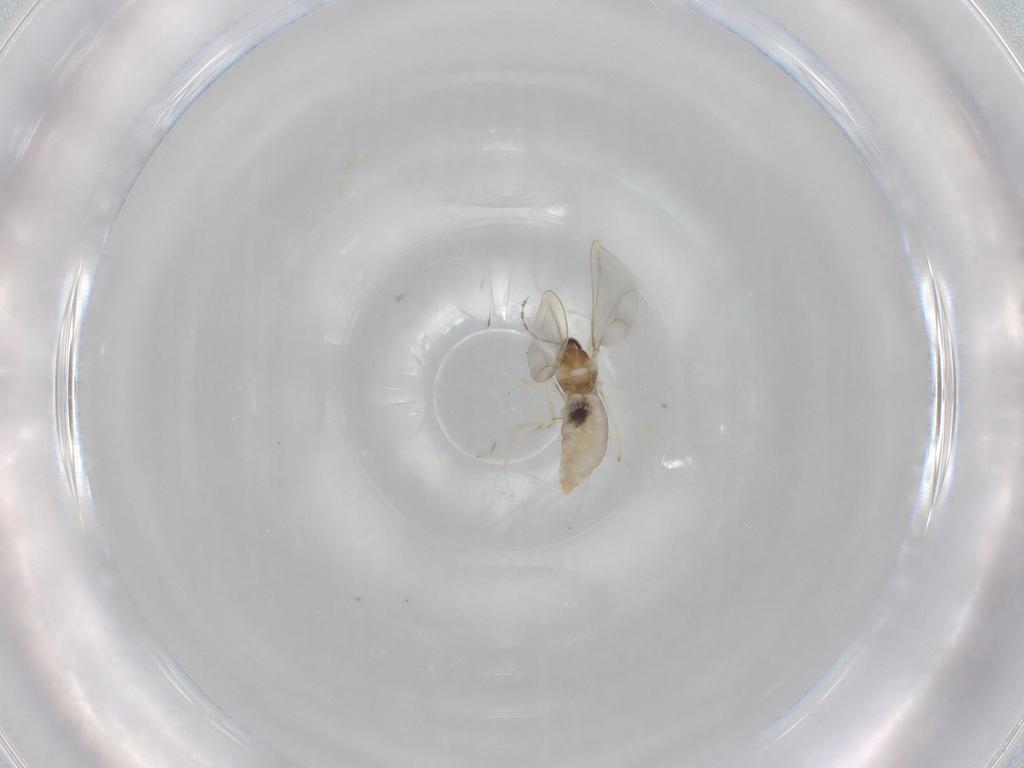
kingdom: Animalia
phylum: Arthropoda
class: Insecta
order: Diptera
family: Cecidomyiidae
